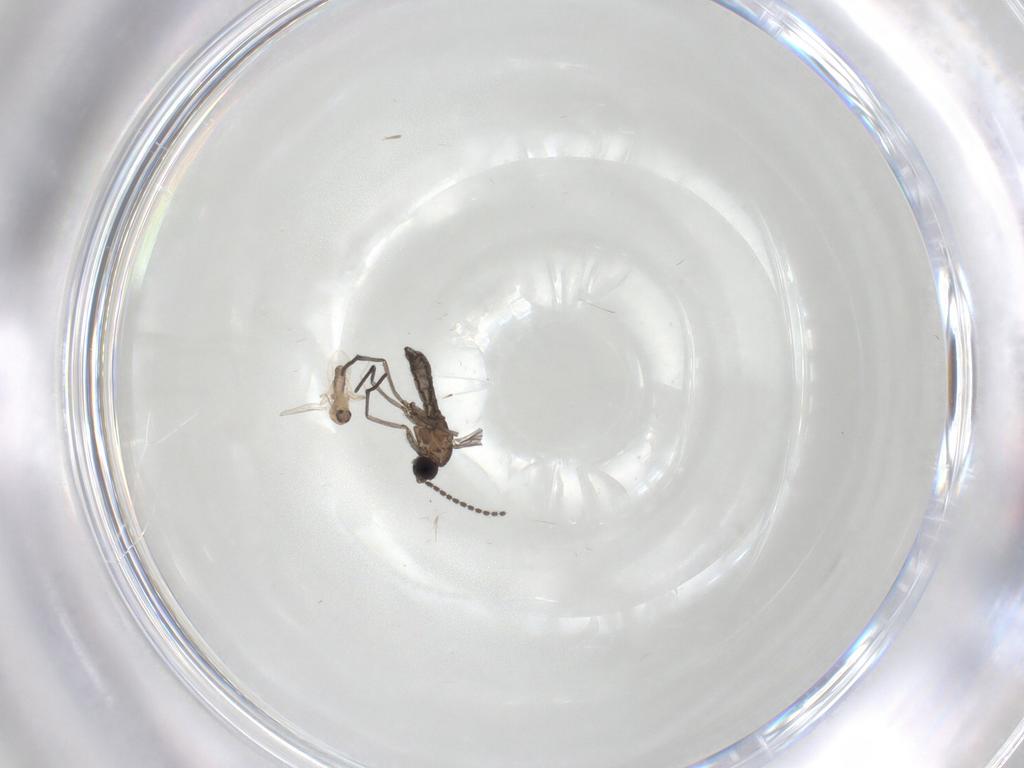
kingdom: Animalia
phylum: Arthropoda
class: Insecta
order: Diptera
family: Ceratopogonidae
